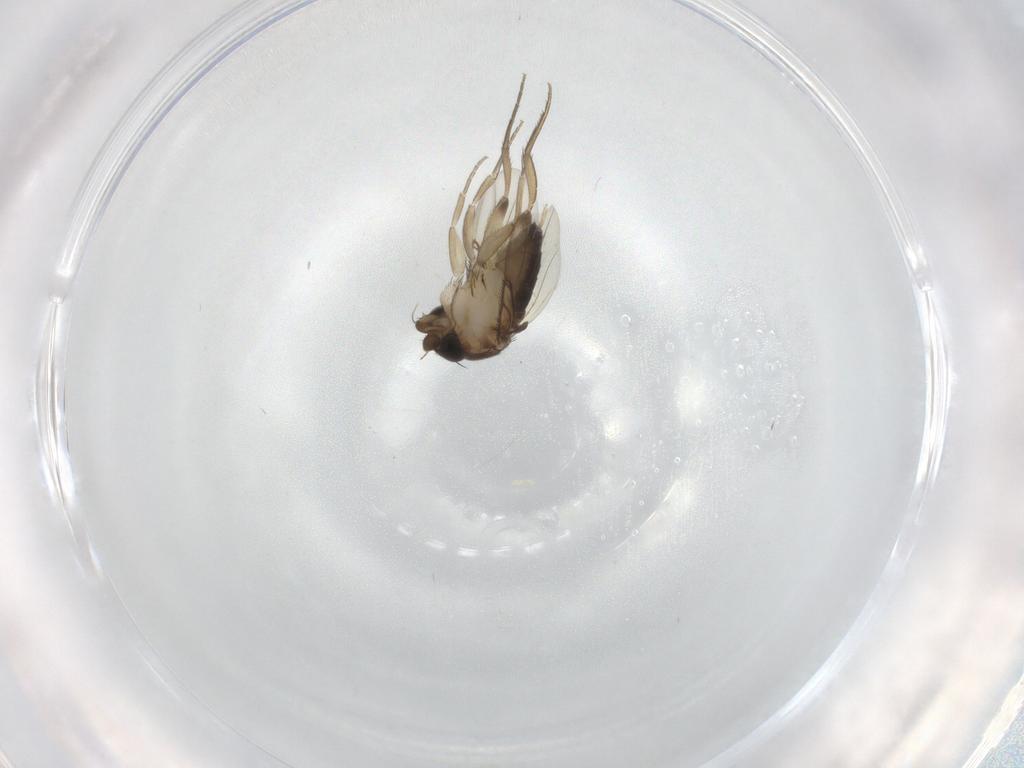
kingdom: Animalia
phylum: Arthropoda
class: Insecta
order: Diptera
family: Phoridae
